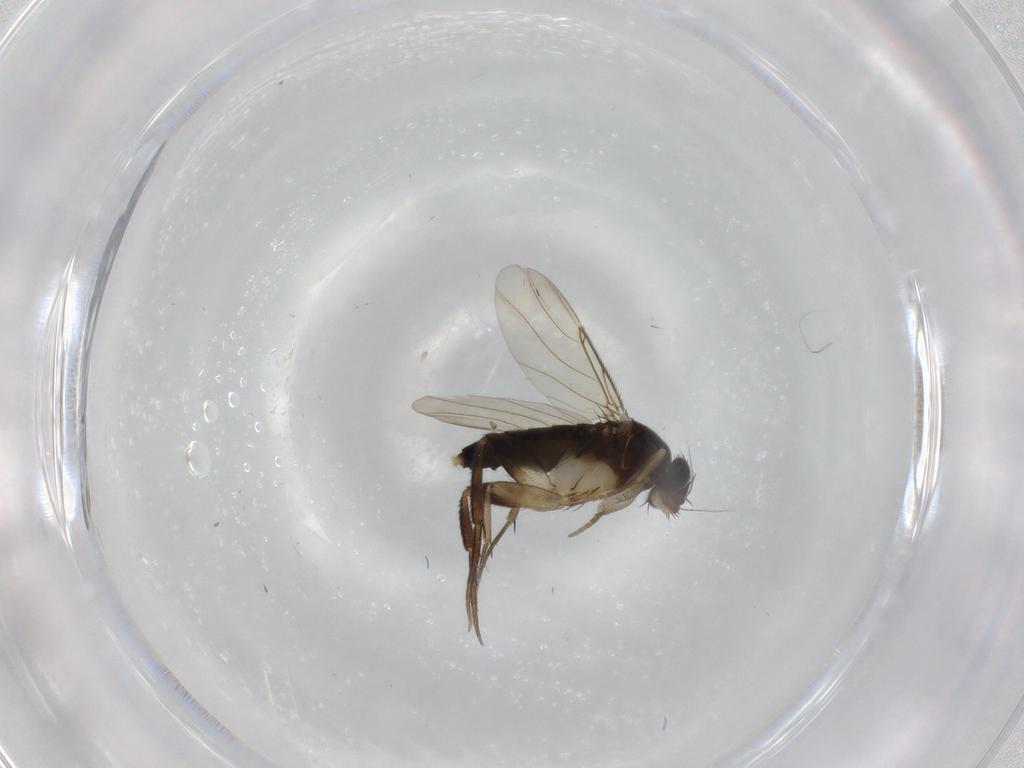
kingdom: Animalia
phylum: Arthropoda
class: Insecta
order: Diptera
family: Phoridae
